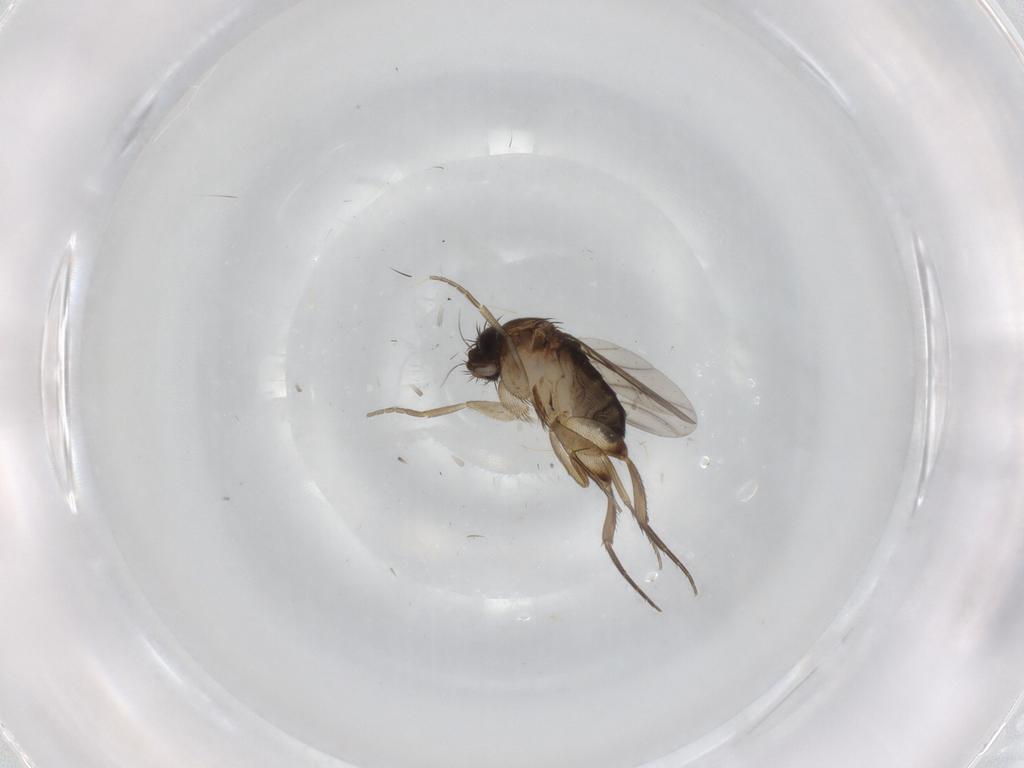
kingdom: Animalia
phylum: Arthropoda
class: Insecta
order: Diptera
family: Phoridae
